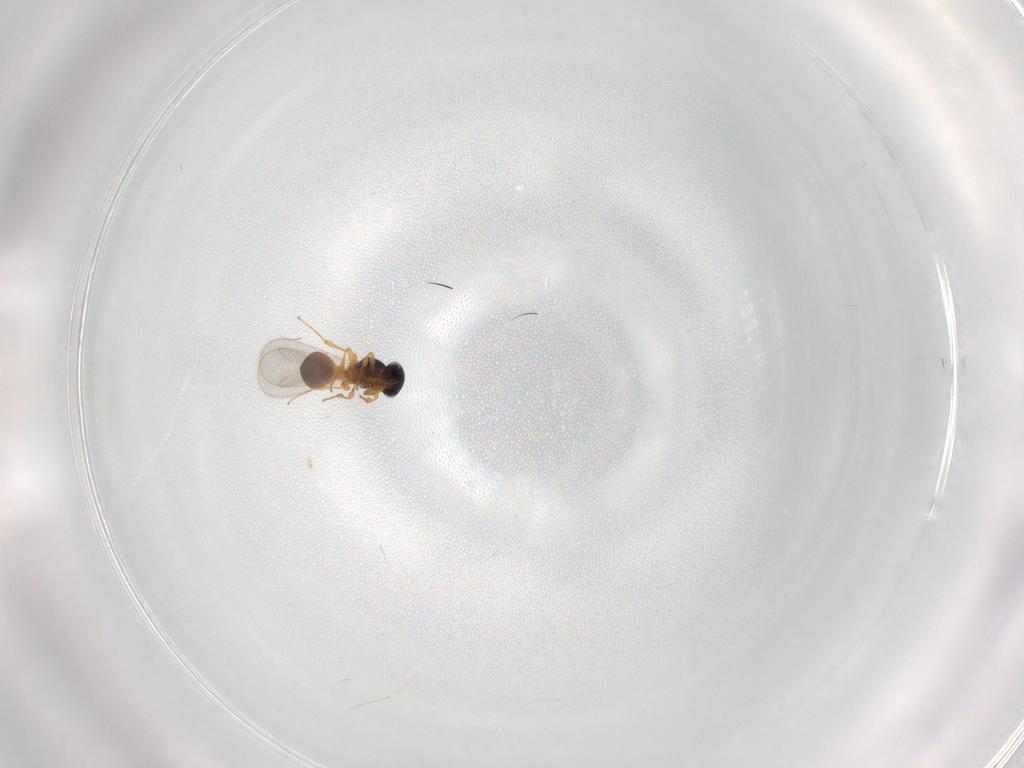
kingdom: Animalia
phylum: Arthropoda
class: Insecta
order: Hymenoptera
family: Platygastridae
